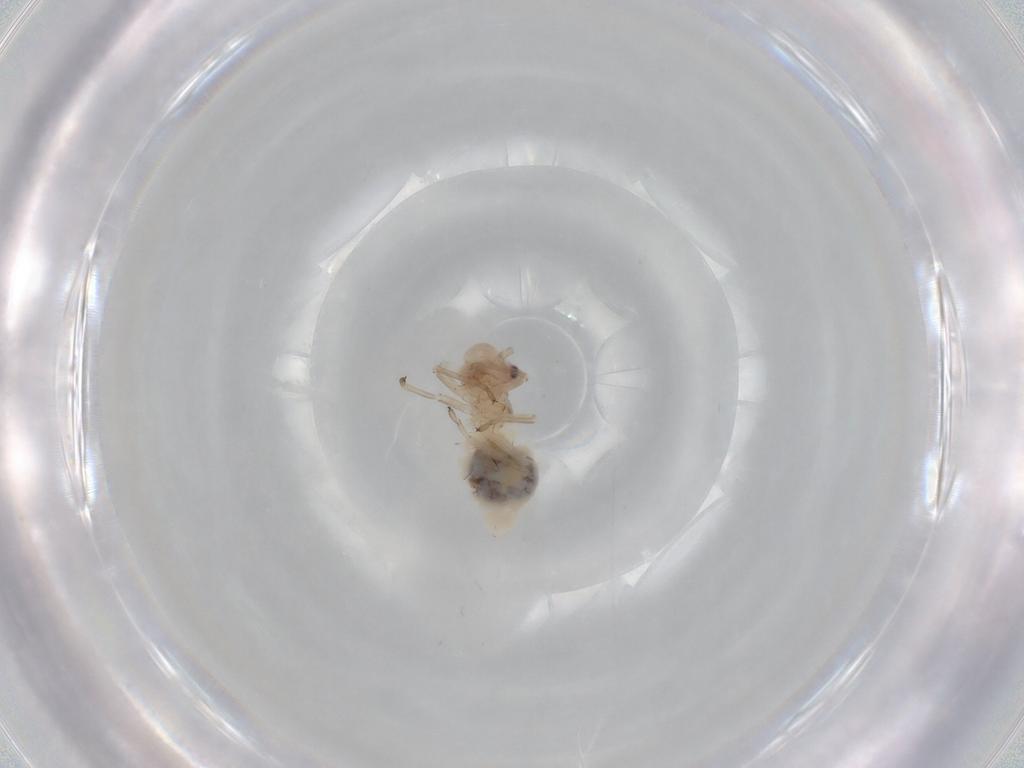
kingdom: Animalia
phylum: Arthropoda
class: Insecta
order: Psocodea
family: Stenopsocidae
